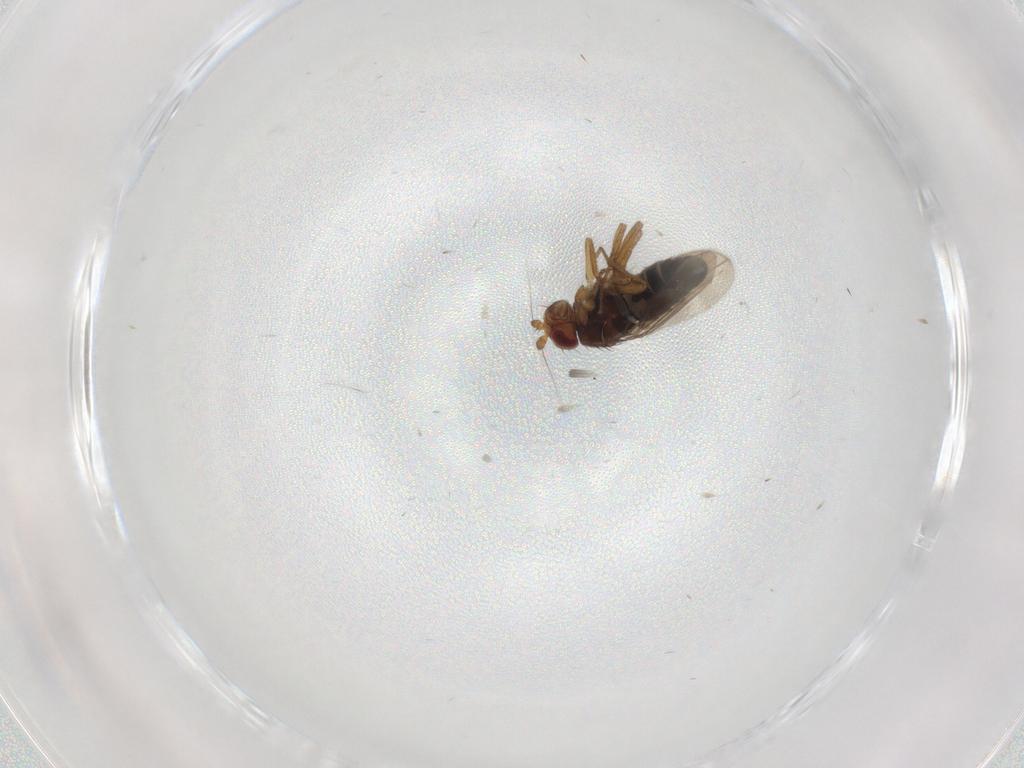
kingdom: Animalia
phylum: Arthropoda
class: Insecta
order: Diptera
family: Sphaeroceridae
